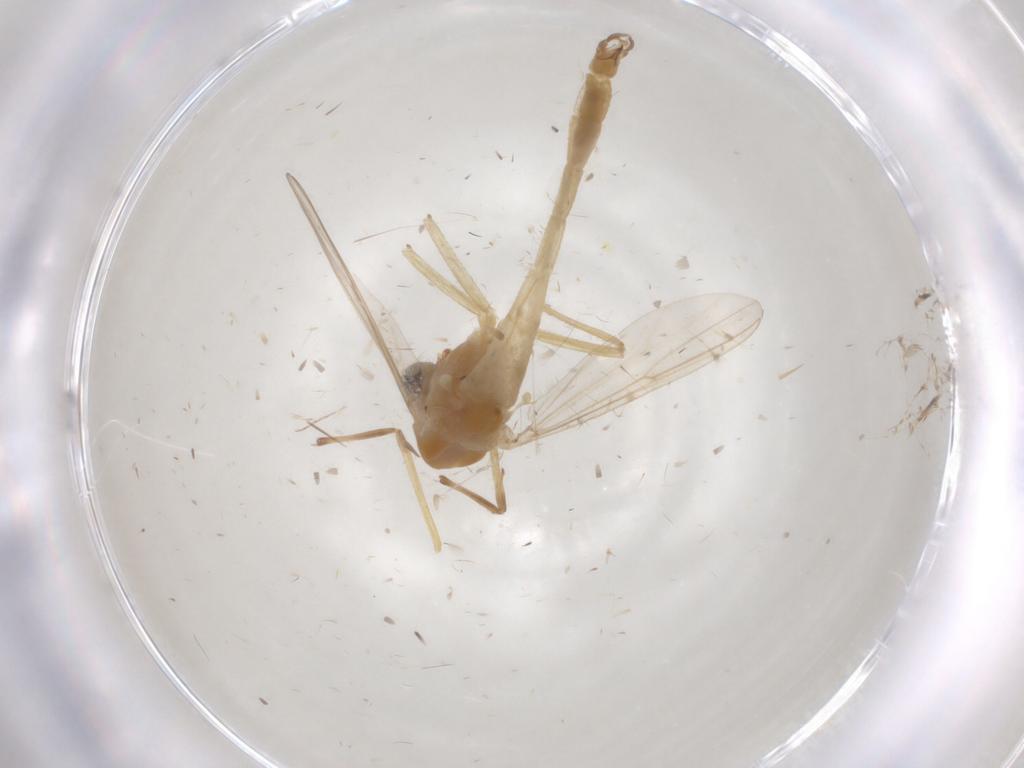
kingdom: Animalia
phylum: Arthropoda
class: Insecta
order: Diptera
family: Chironomidae
